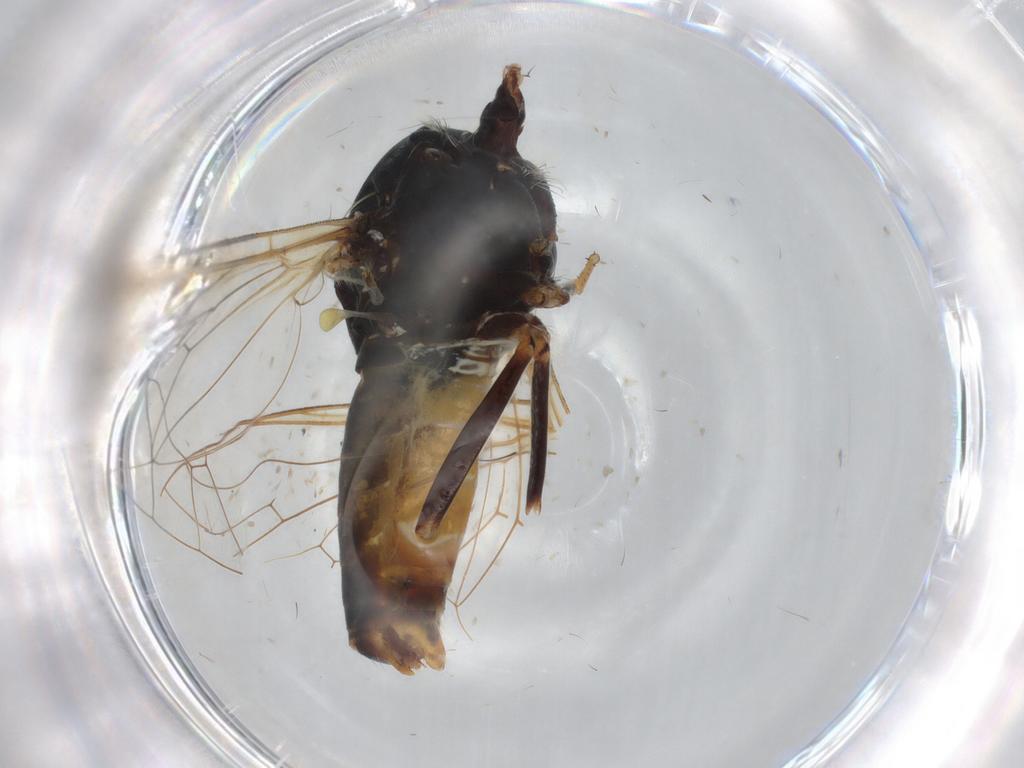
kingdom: Animalia
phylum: Arthropoda
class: Insecta
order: Diptera
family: Bombyliidae
